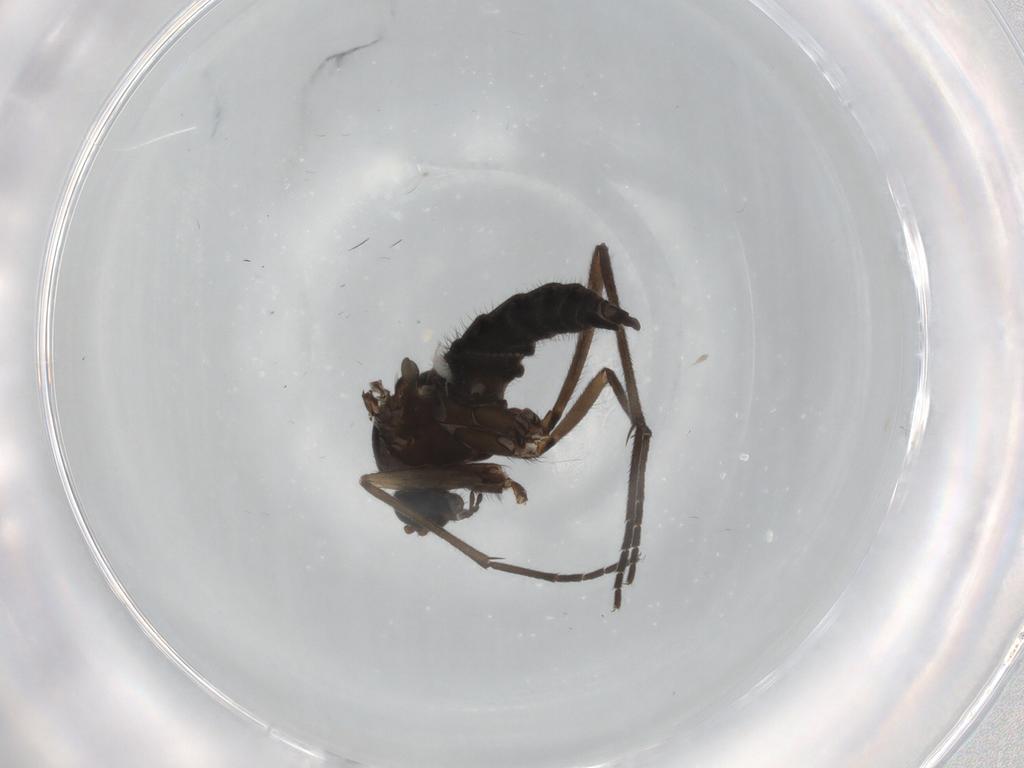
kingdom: Animalia
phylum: Arthropoda
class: Insecta
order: Diptera
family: Sciaridae
